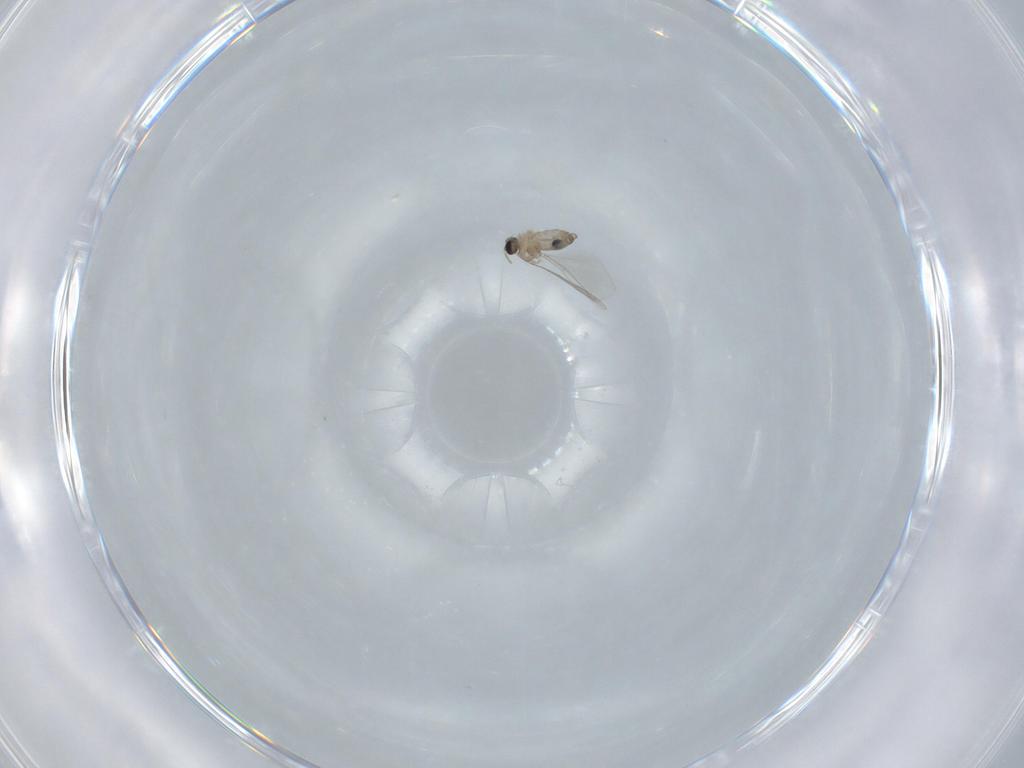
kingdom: Animalia
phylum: Arthropoda
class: Insecta
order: Diptera
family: Cecidomyiidae
